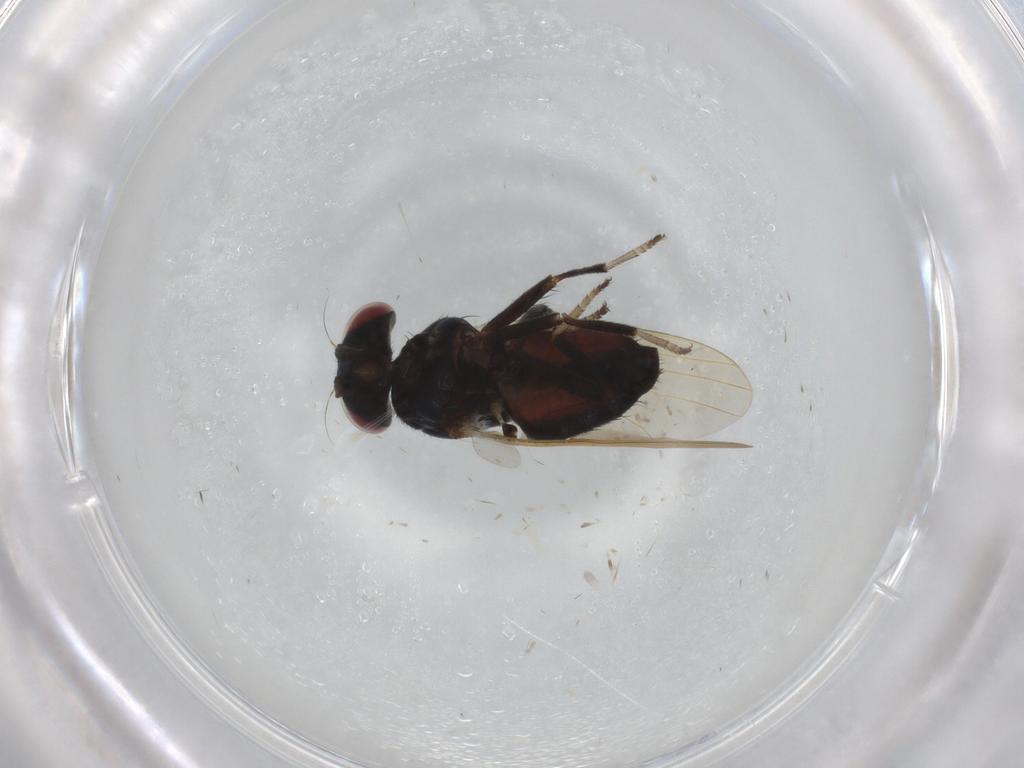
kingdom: Animalia
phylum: Arthropoda
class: Insecta
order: Diptera
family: Lonchaeidae
